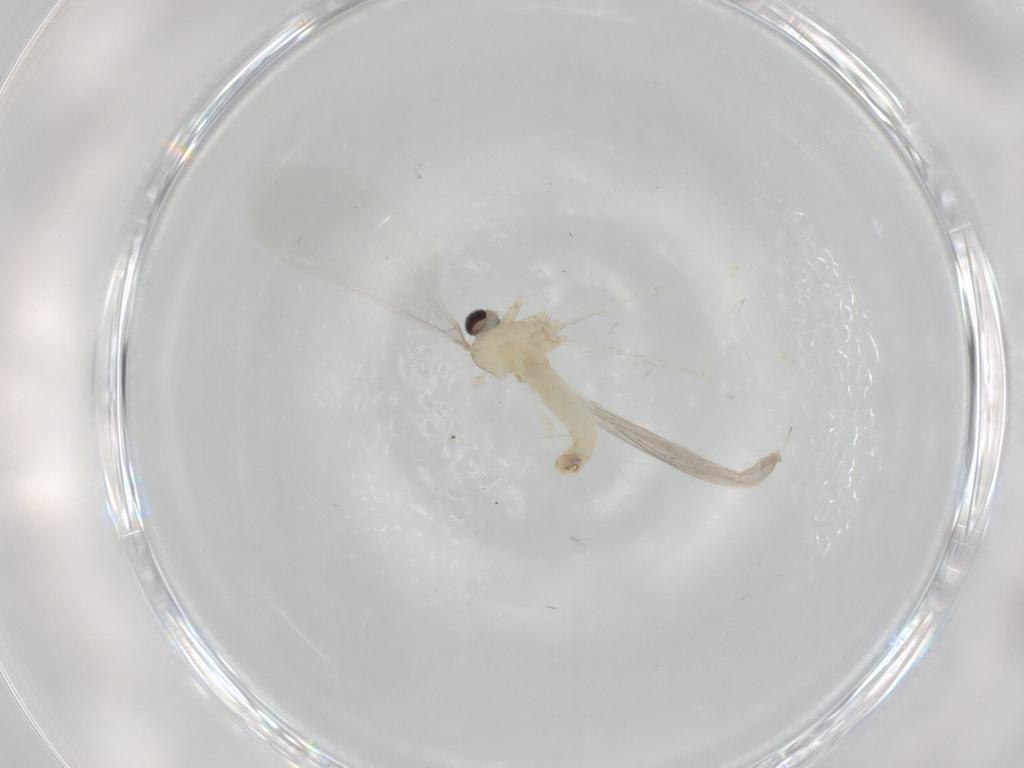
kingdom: Animalia
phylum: Arthropoda
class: Insecta
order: Diptera
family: Cecidomyiidae
